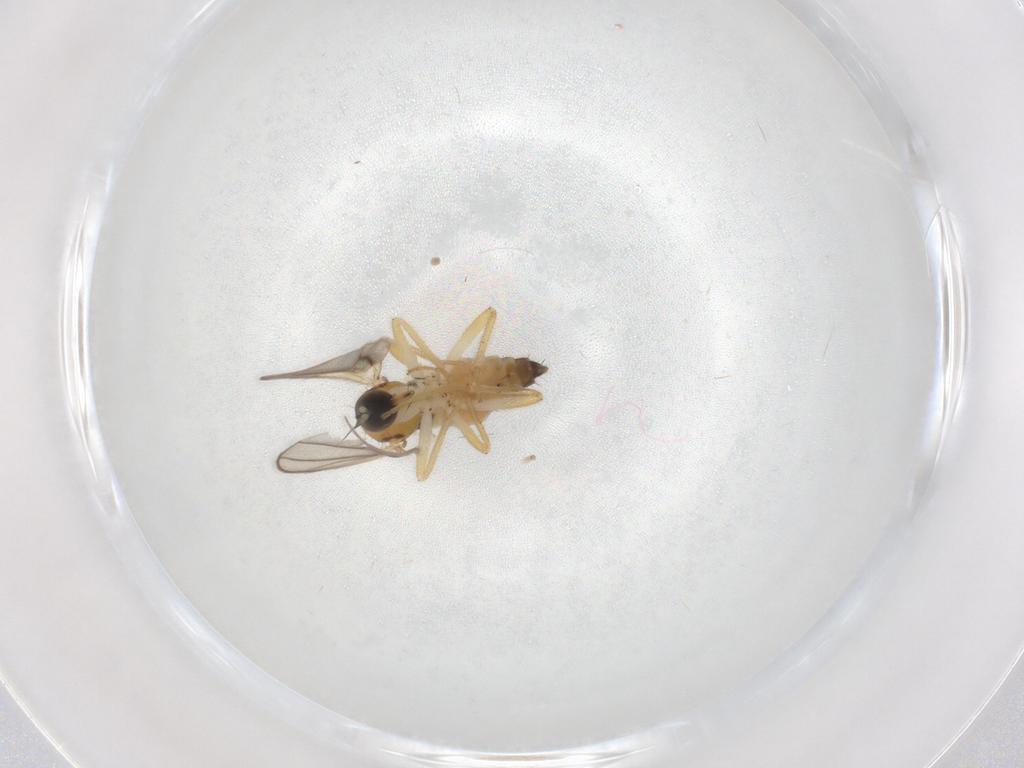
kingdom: Animalia
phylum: Arthropoda
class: Insecta
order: Diptera
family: Hybotidae
